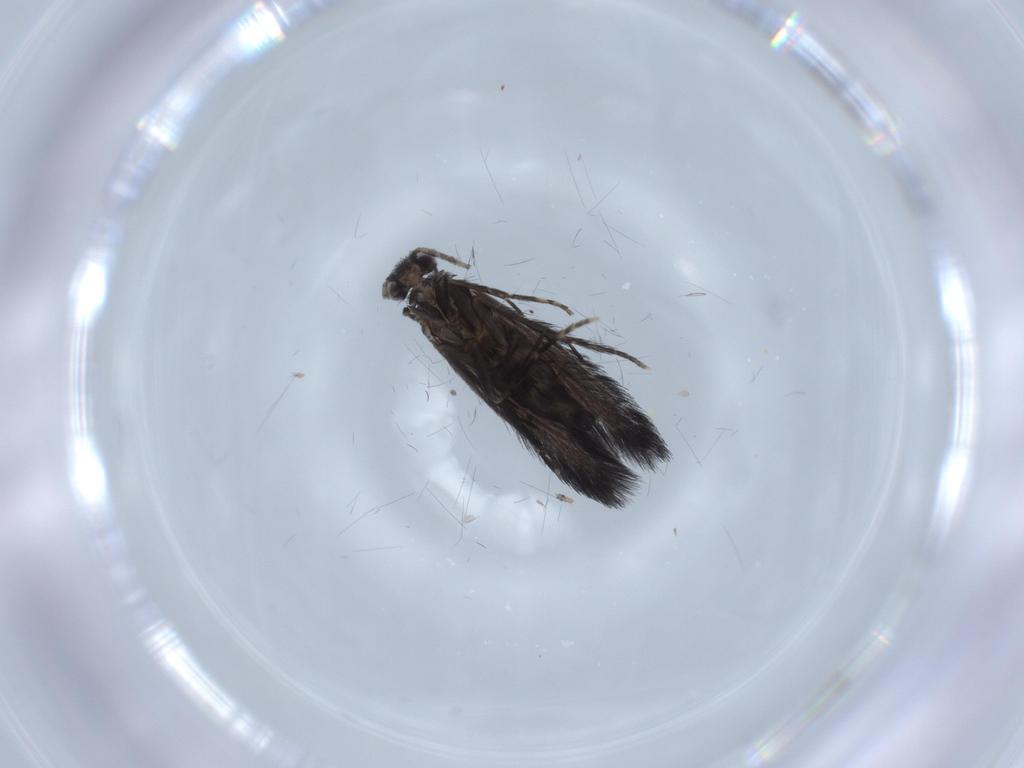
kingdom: Animalia
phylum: Arthropoda
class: Insecta
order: Trichoptera
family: Hydroptilidae
